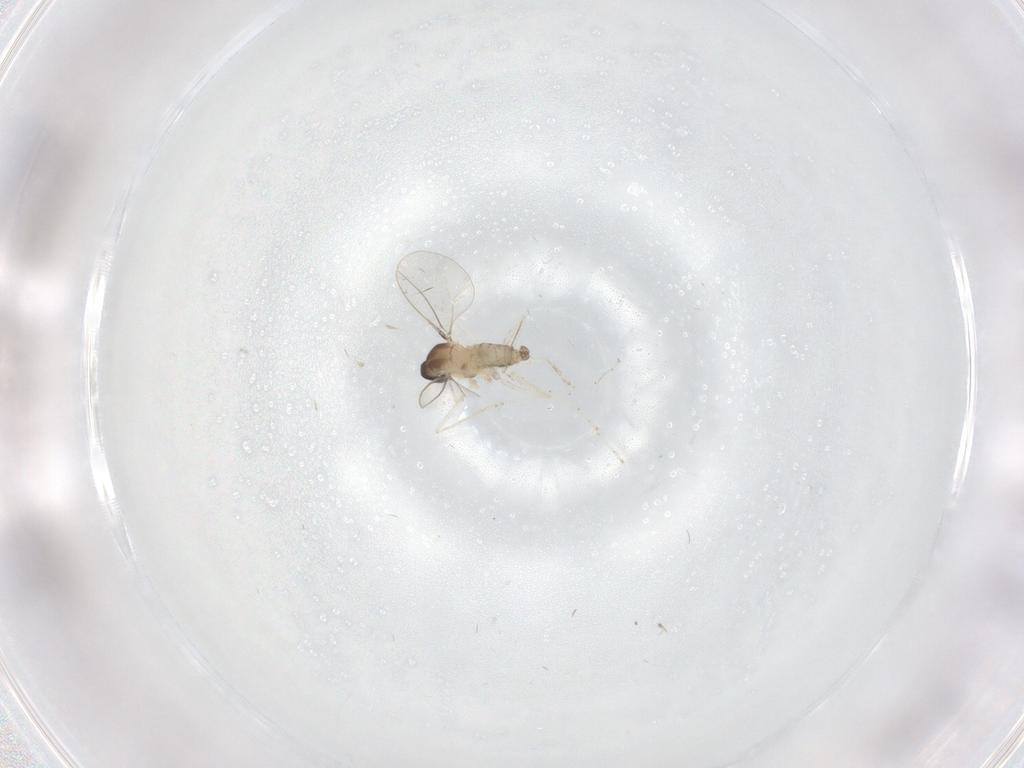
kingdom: Animalia
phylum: Arthropoda
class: Insecta
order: Diptera
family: Cecidomyiidae
